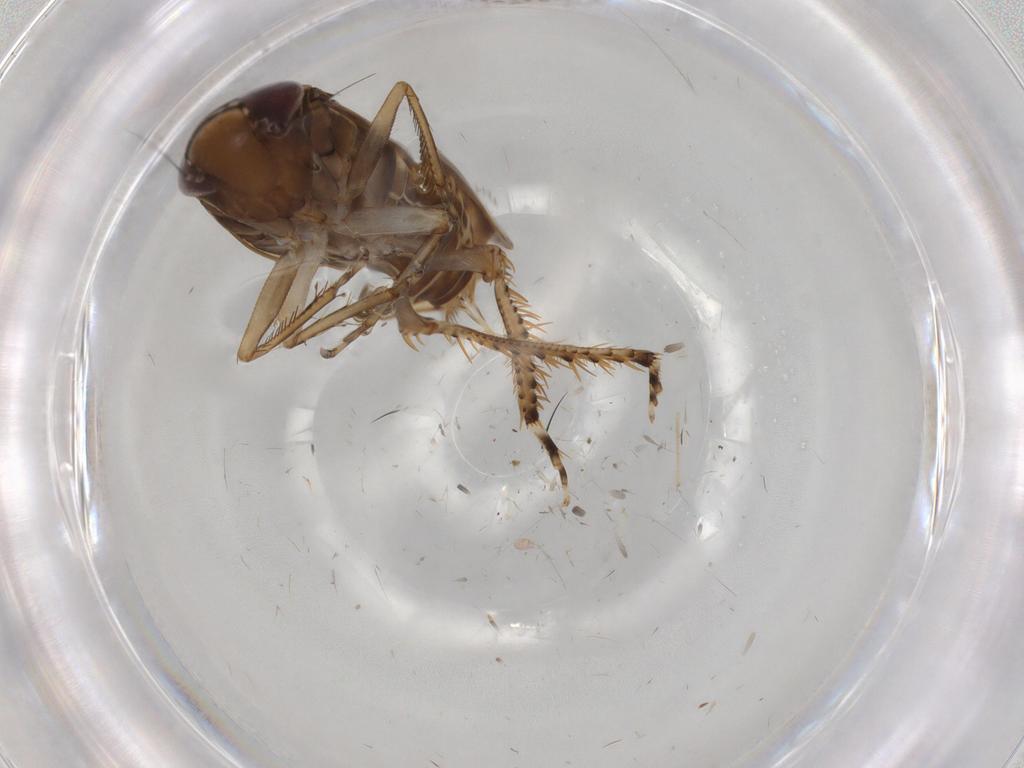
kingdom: Animalia
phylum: Arthropoda
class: Insecta
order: Hemiptera
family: Cicadellidae
